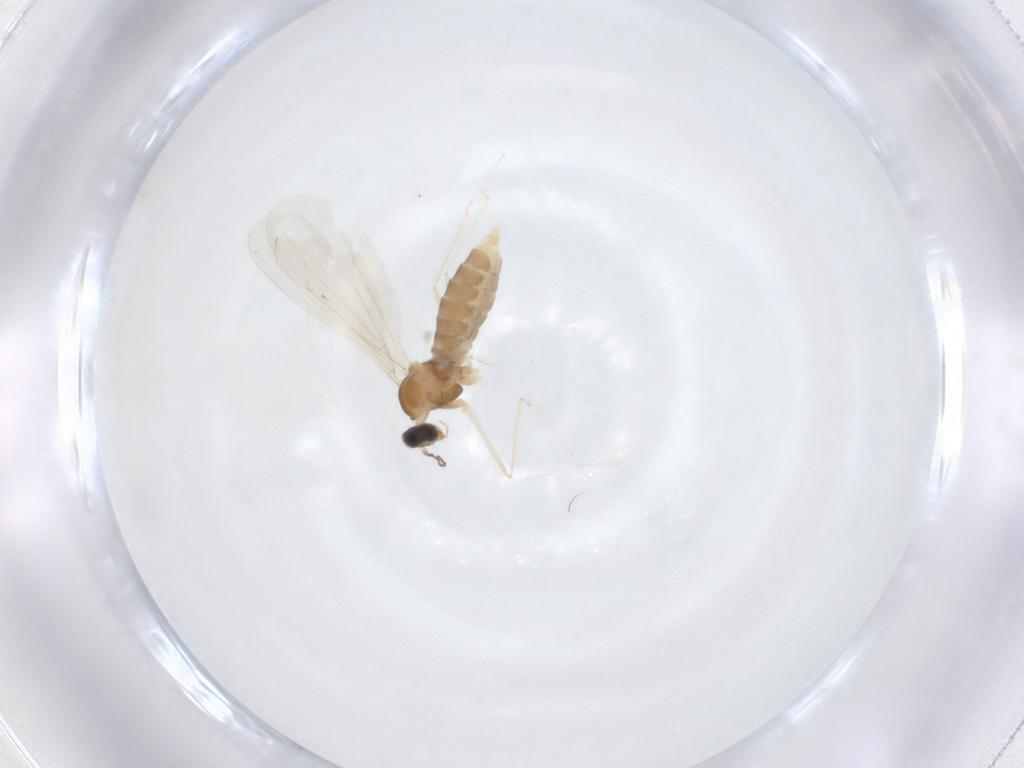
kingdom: Animalia
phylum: Arthropoda
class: Insecta
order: Diptera
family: Cecidomyiidae
